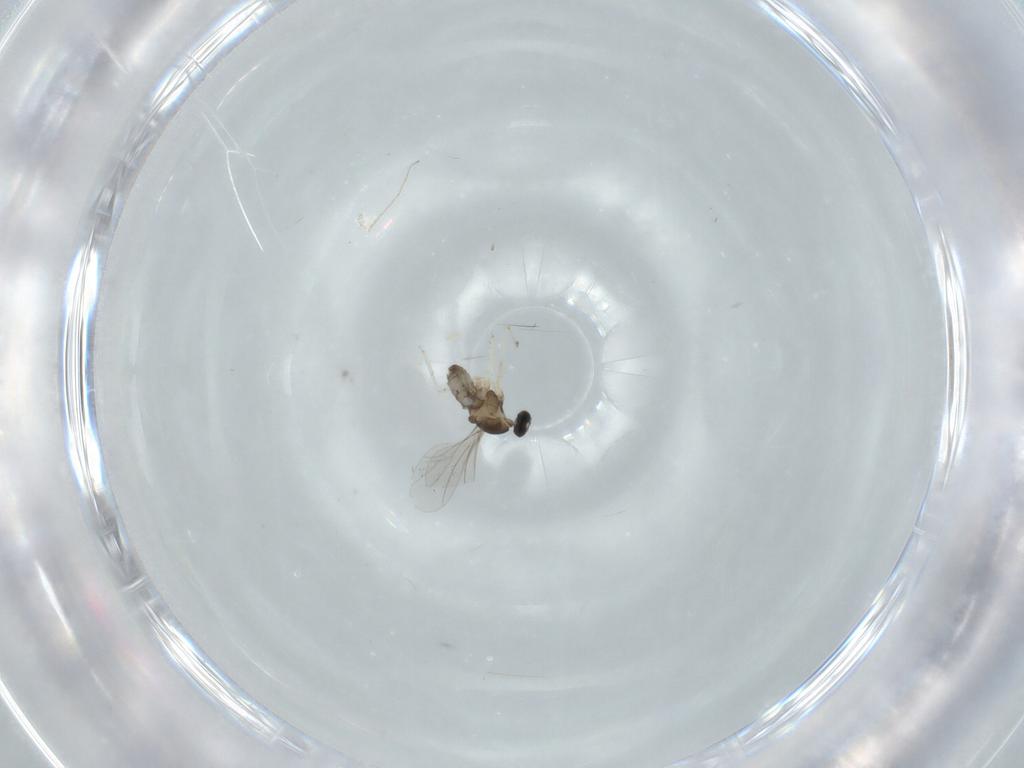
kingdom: Animalia
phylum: Arthropoda
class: Insecta
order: Diptera
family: Cecidomyiidae
